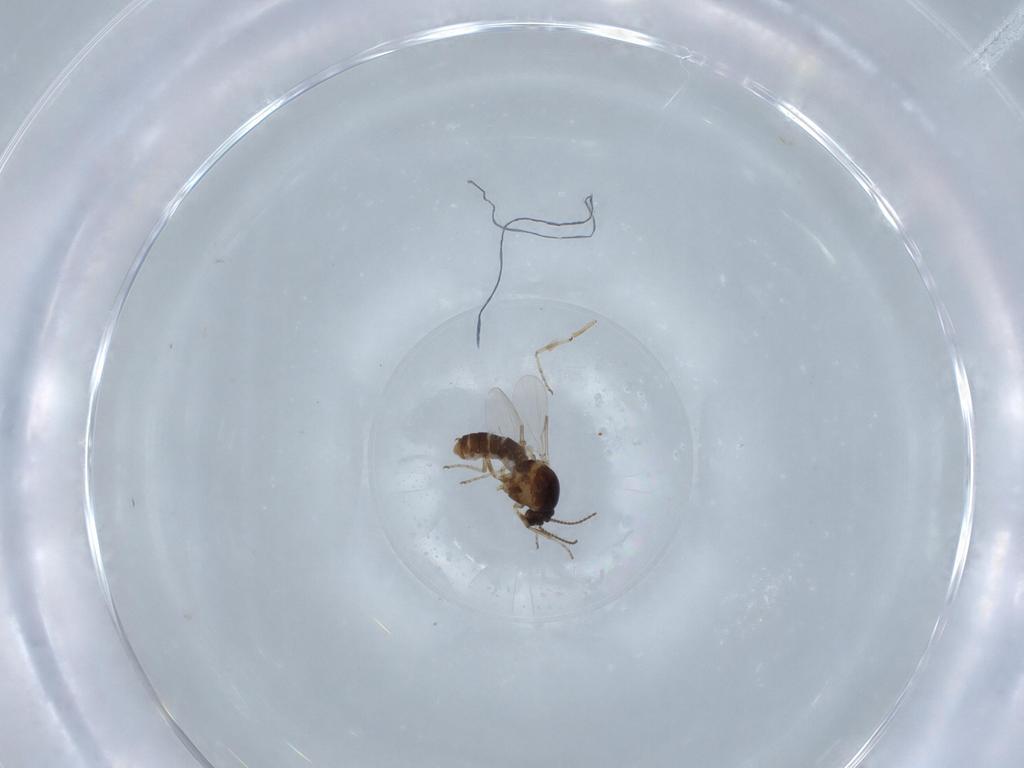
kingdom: Animalia
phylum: Arthropoda
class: Insecta
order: Diptera
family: Ceratopogonidae
